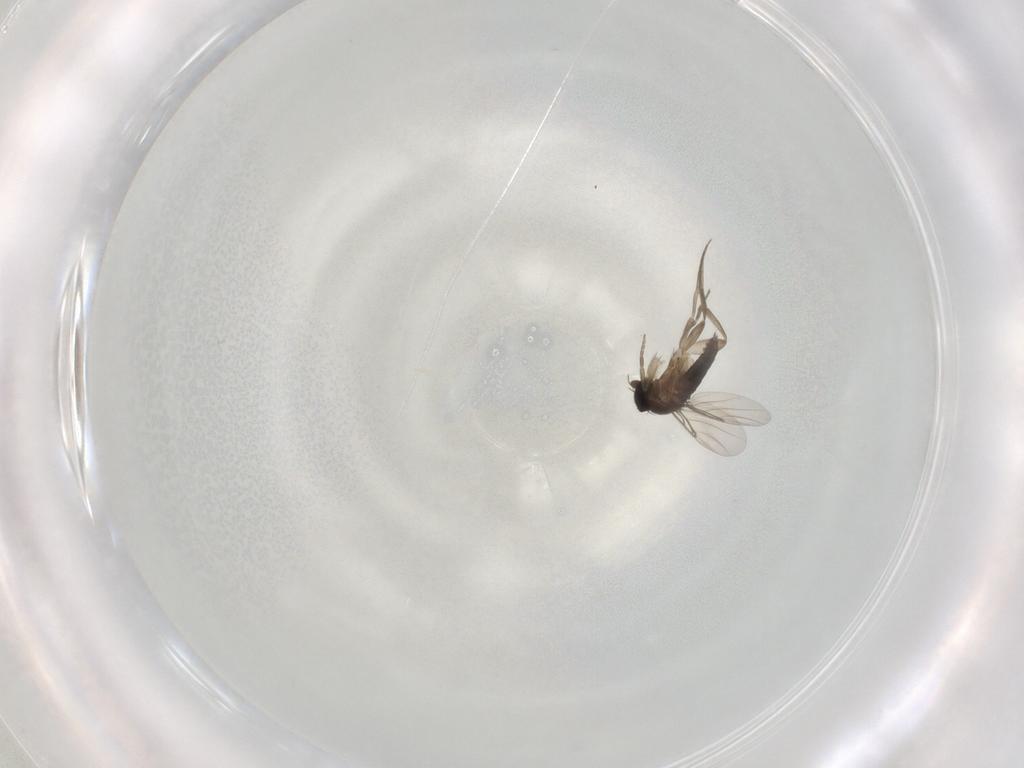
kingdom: Animalia
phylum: Arthropoda
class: Insecta
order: Diptera
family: Phoridae
